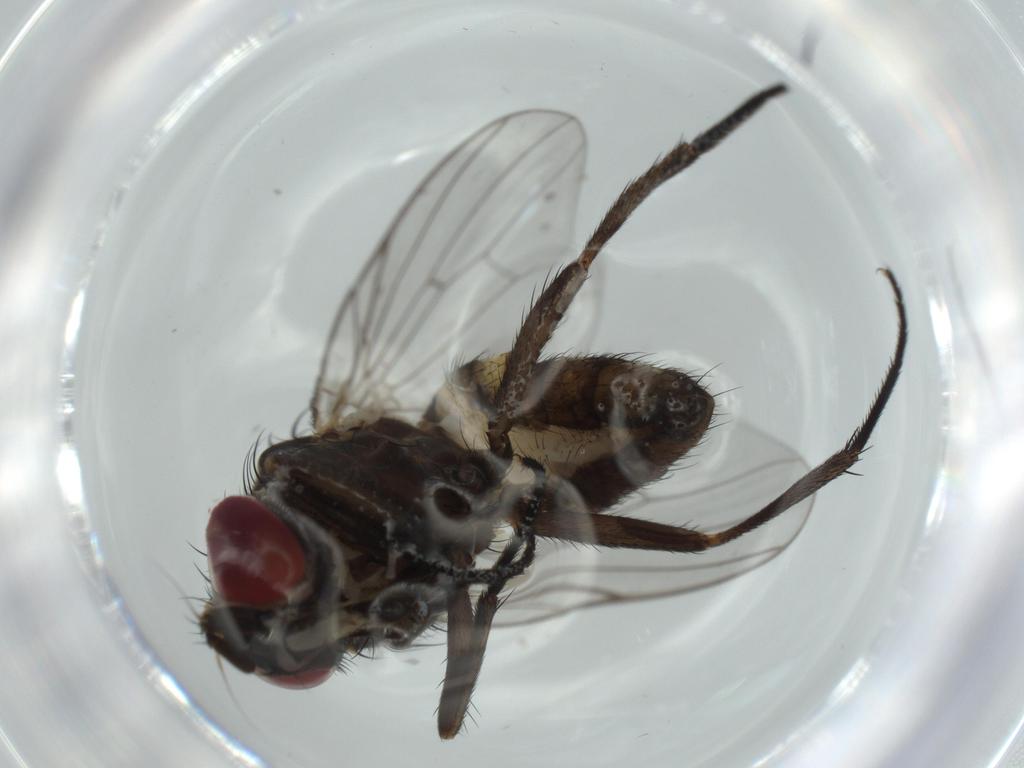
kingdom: Animalia
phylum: Arthropoda
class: Insecta
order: Diptera
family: Fannia
